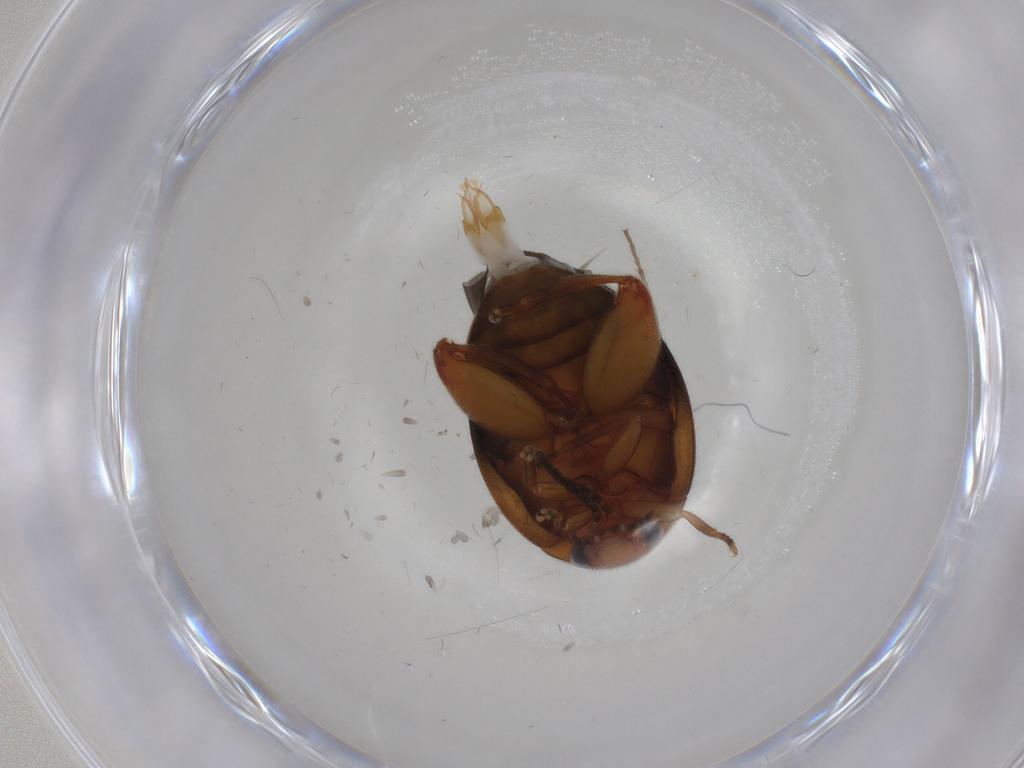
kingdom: Animalia
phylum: Arthropoda
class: Insecta
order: Coleoptera
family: Scirtidae
